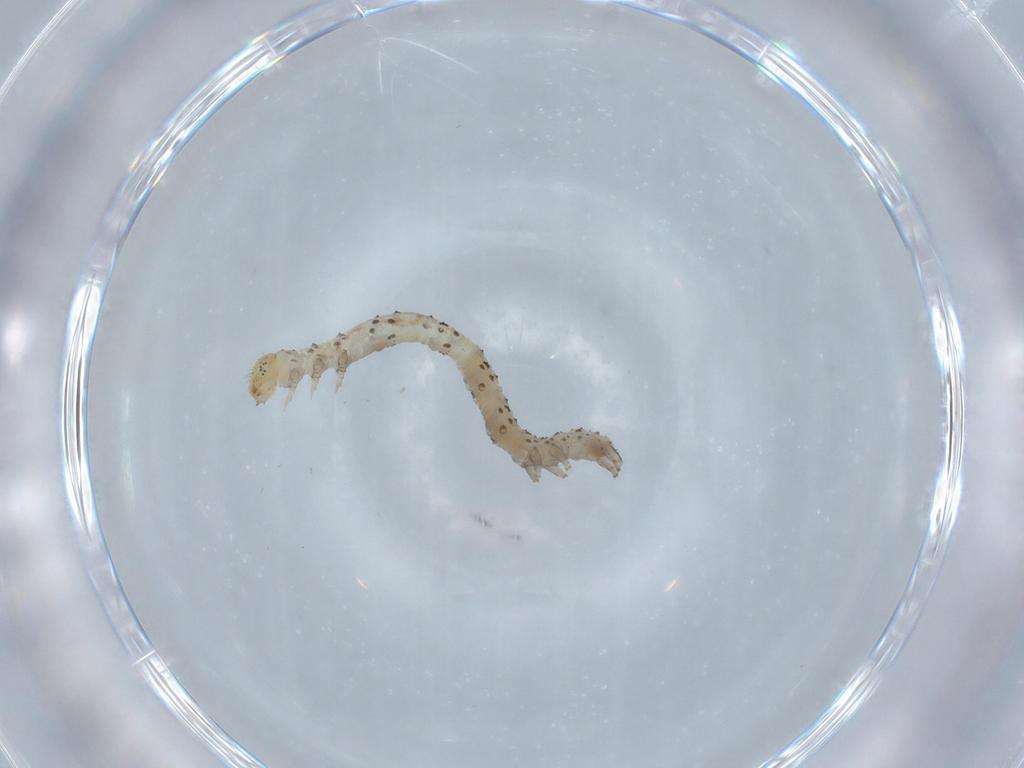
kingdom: Animalia
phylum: Arthropoda
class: Insecta
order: Lepidoptera
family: Erebidae
